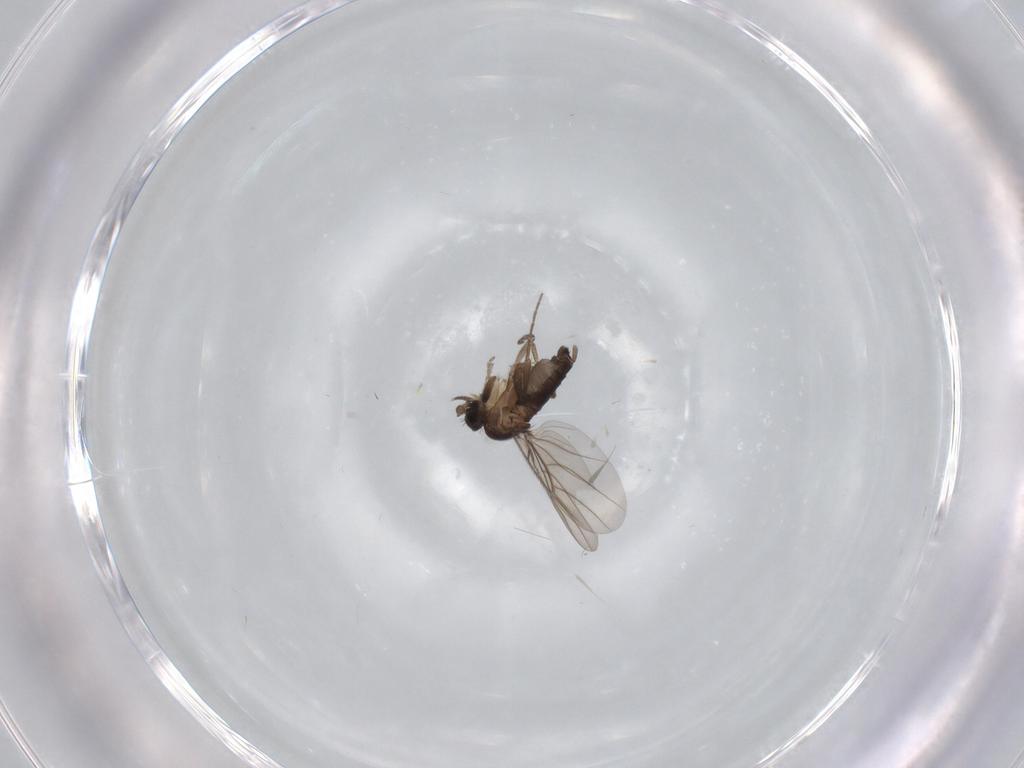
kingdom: Animalia
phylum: Arthropoda
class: Insecta
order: Diptera
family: Phoridae
